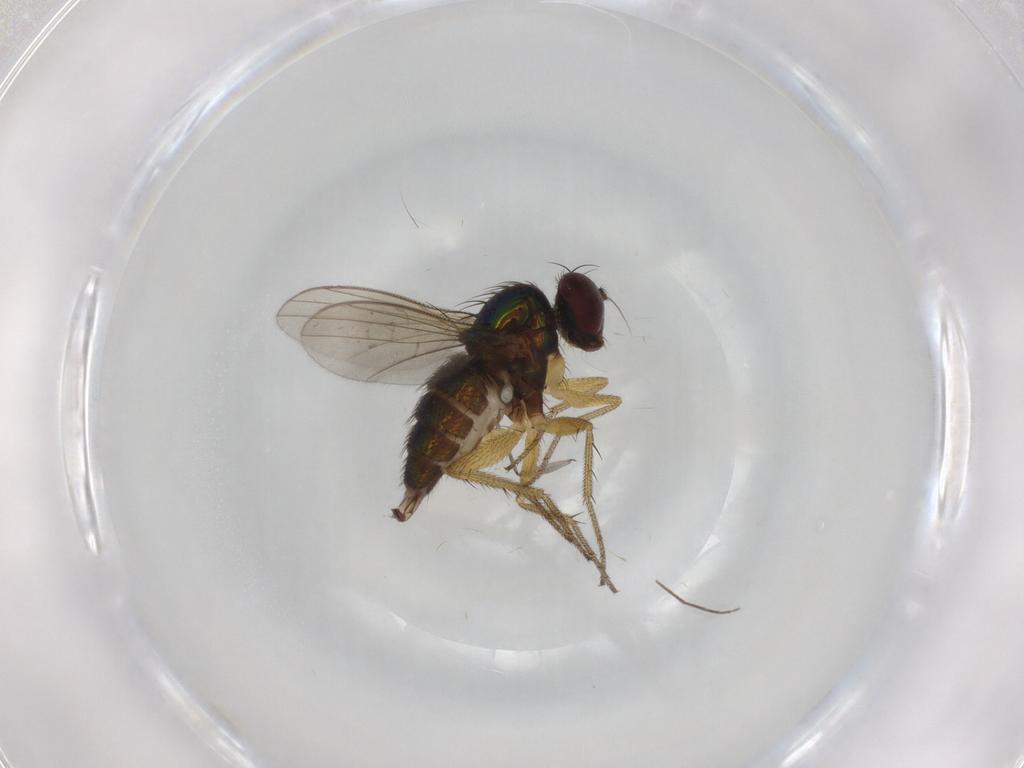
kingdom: Animalia
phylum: Arthropoda
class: Insecta
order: Diptera
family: Dolichopodidae
